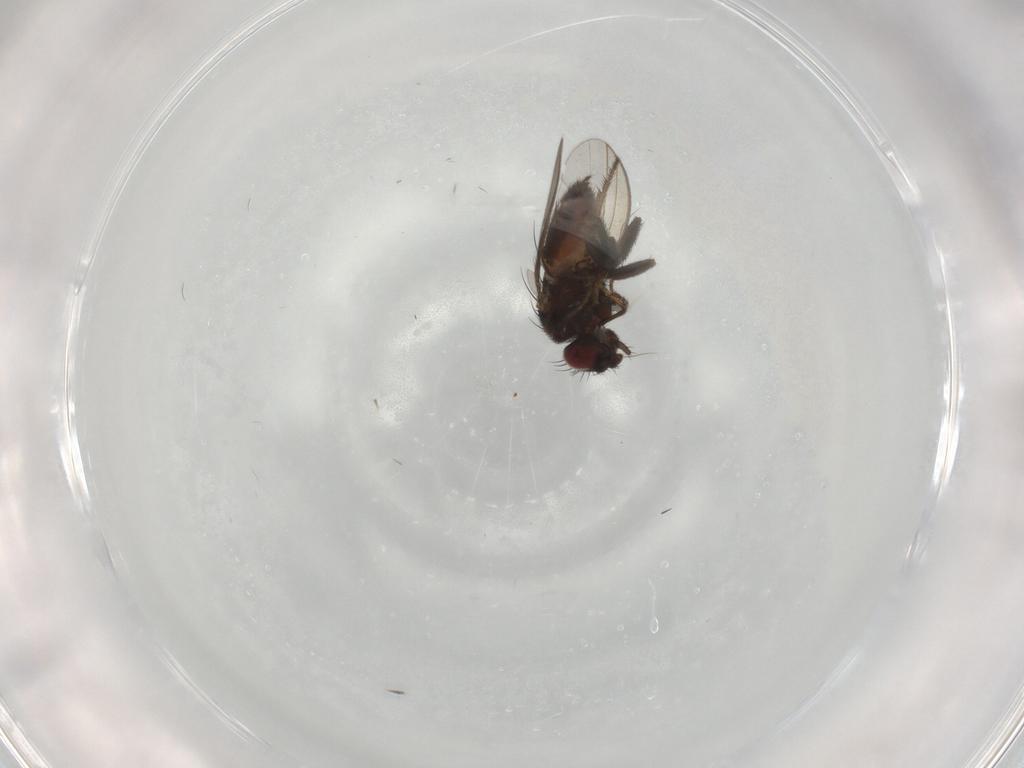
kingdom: Animalia
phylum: Arthropoda
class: Insecta
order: Diptera
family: Milichiidae
